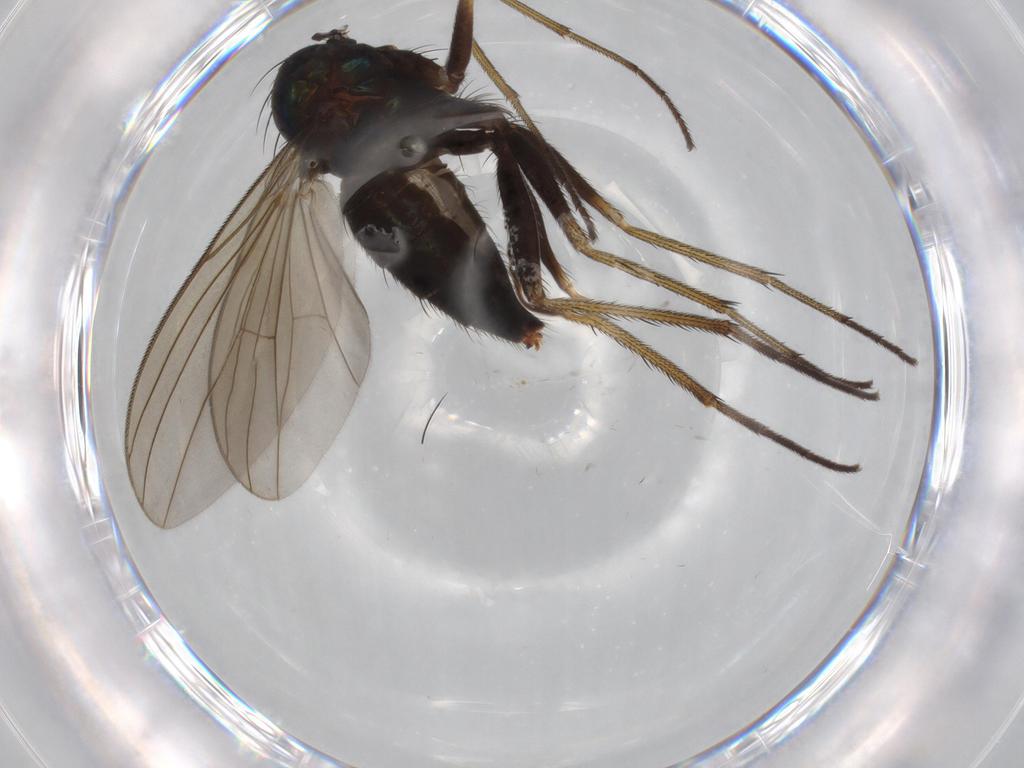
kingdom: Animalia
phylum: Arthropoda
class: Insecta
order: Diptera
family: Dolichopodidae
